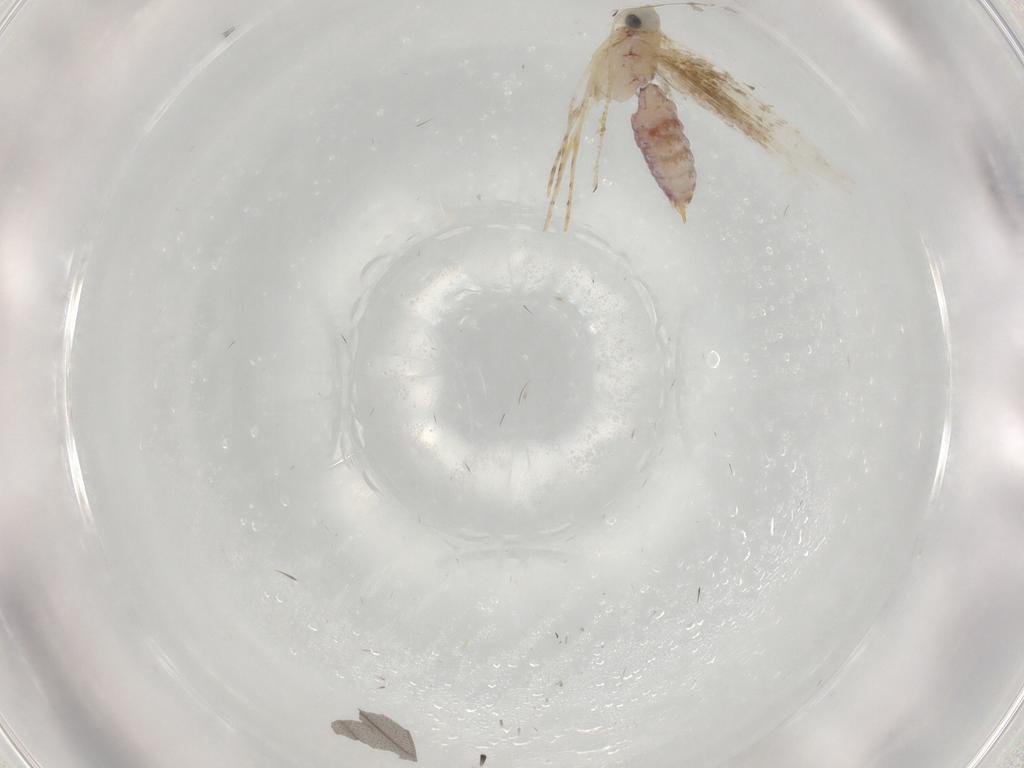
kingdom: Animalia
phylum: Arthropoda
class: Insecta
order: Lepidoptera
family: Lyonetiidae
